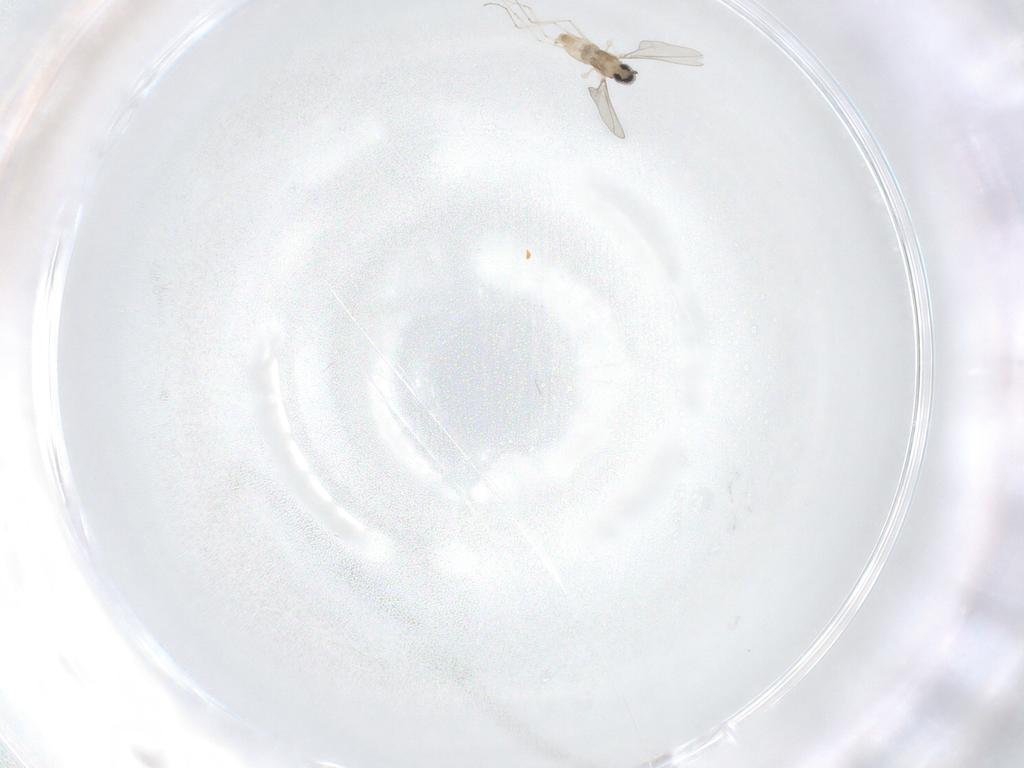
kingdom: Animalia
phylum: Arthropoda
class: Insecta
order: Diptera
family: Cecidomyiidae
